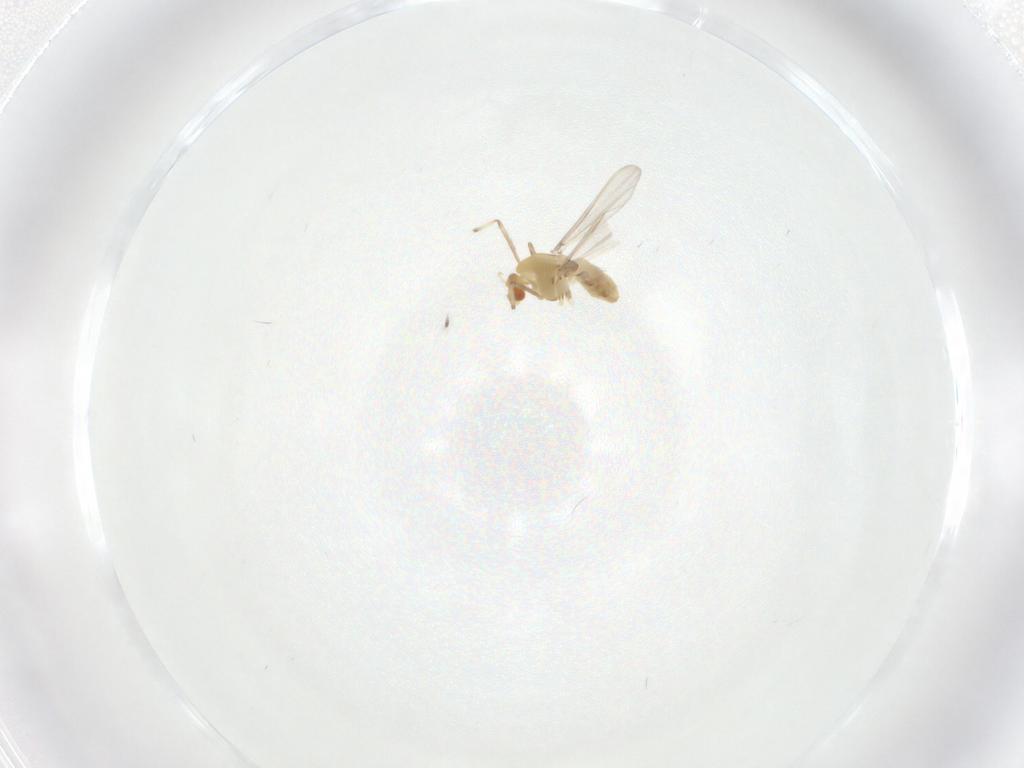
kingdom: Animalia
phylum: Arthropoda
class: Insecta
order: Diptera
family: Chironomidae
